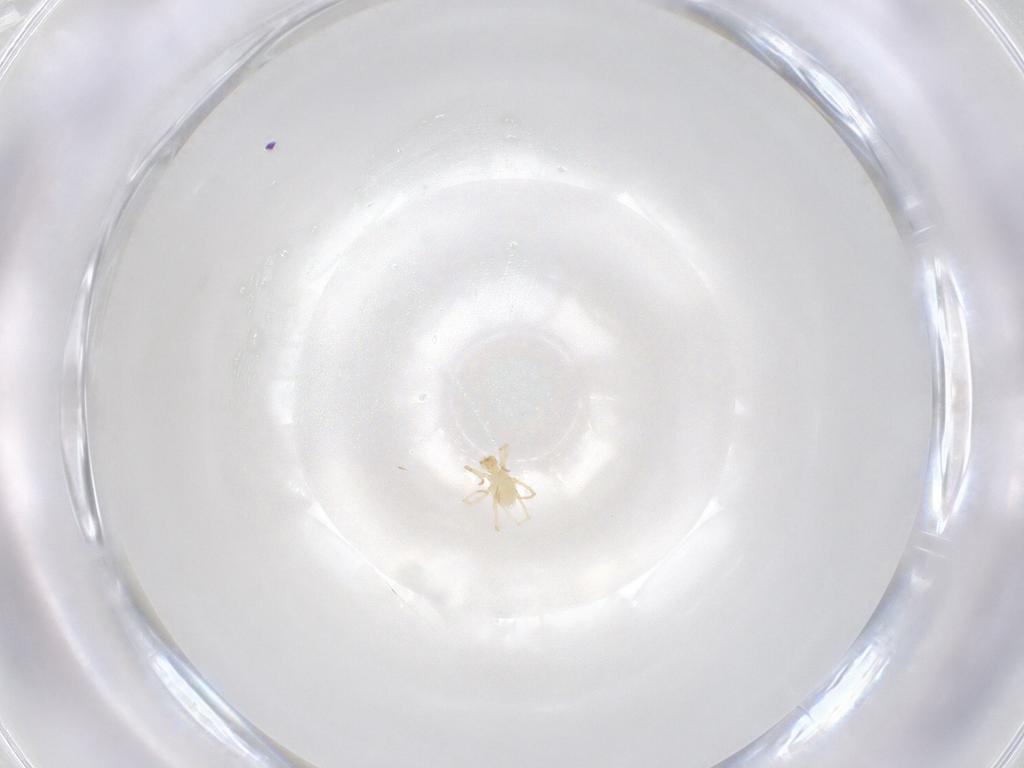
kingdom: Animalia
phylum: Arthropoda
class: Arachnida
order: Trombidiformes
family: Erythraeidae
